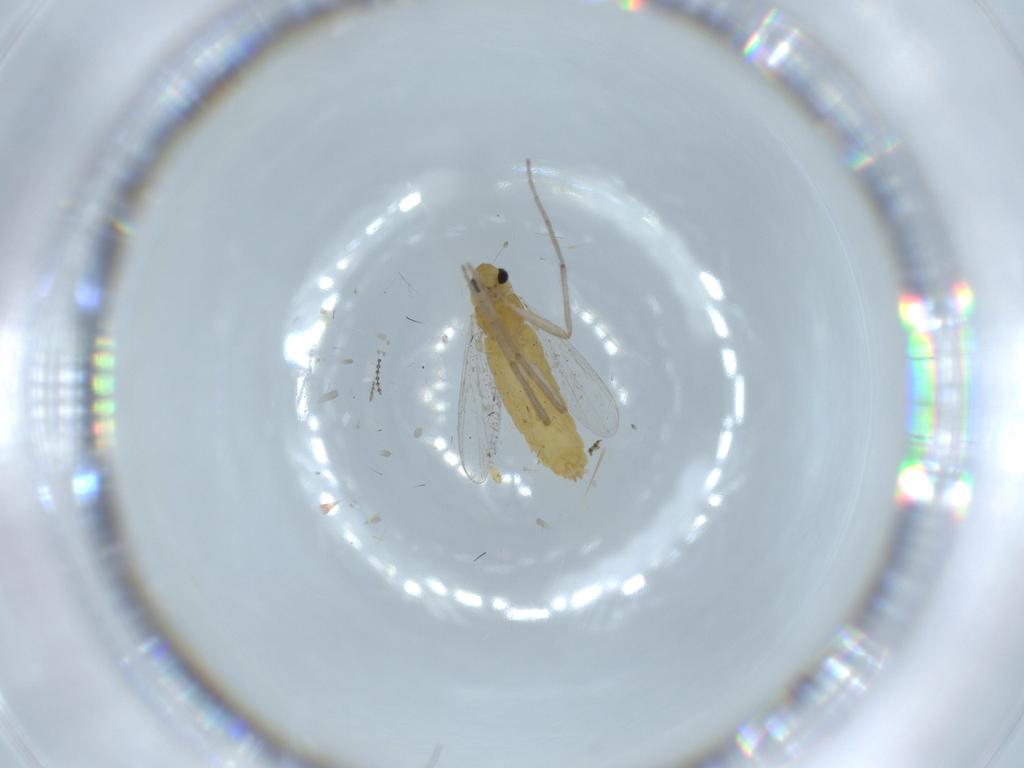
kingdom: Animalia
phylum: Arthropoda
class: Insecta
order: Diptera
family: Chironomidae
